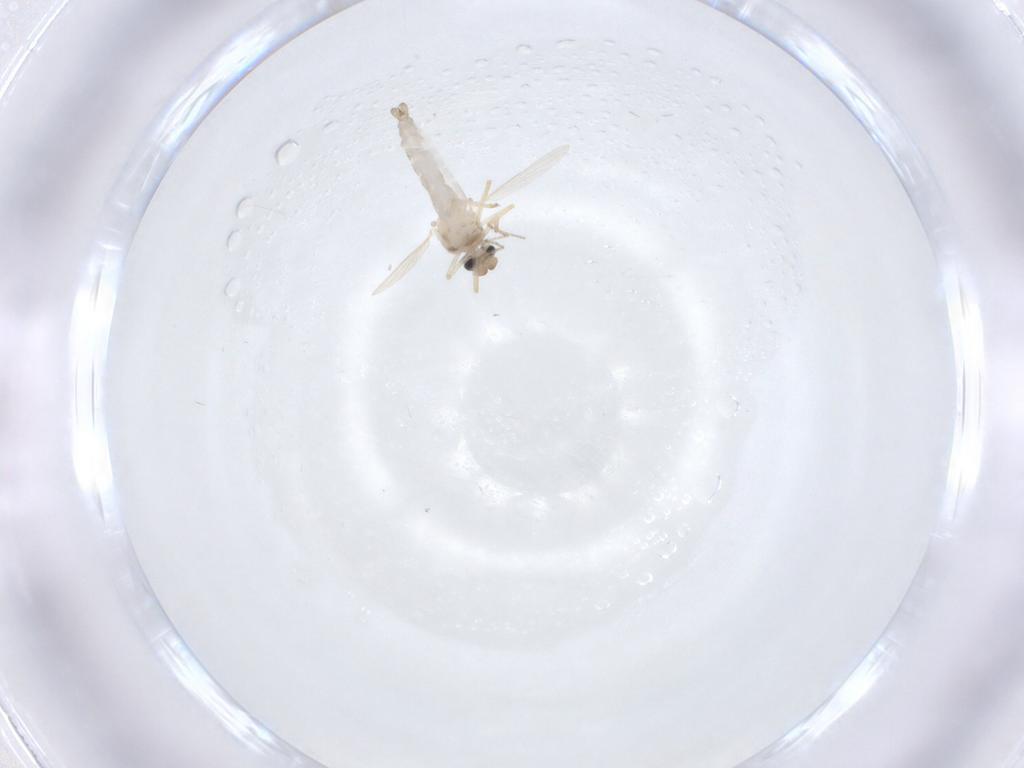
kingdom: Animalia
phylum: Arthropoda
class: Insecta
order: Diptera
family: Ceratopogonidae
